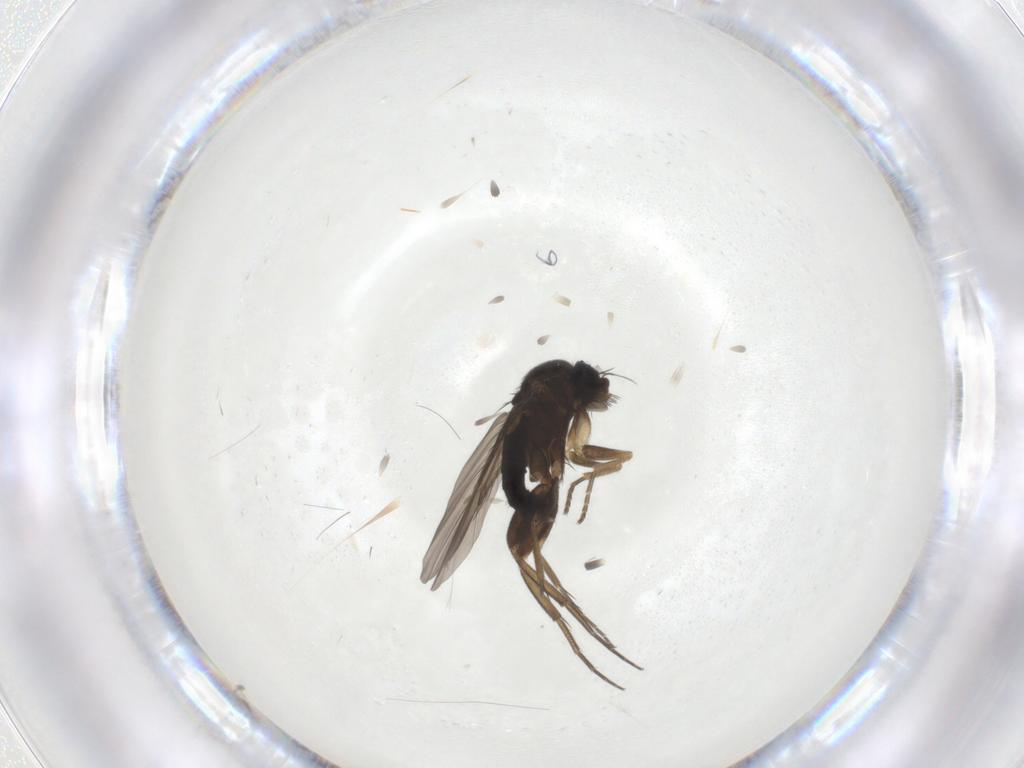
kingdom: Animalia
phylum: Arthropoda
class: Insecta
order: Diptera
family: Phoridae
